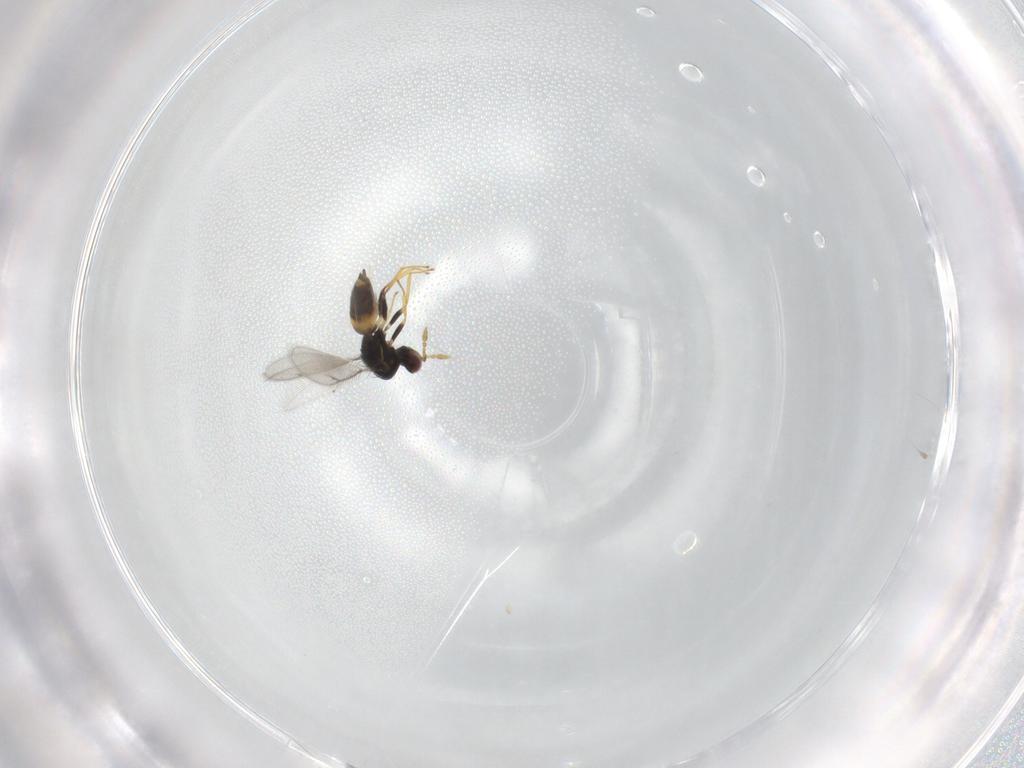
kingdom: Animalia
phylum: Arthropoda
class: Insecta
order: Hymenoptera
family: Eulophidae
